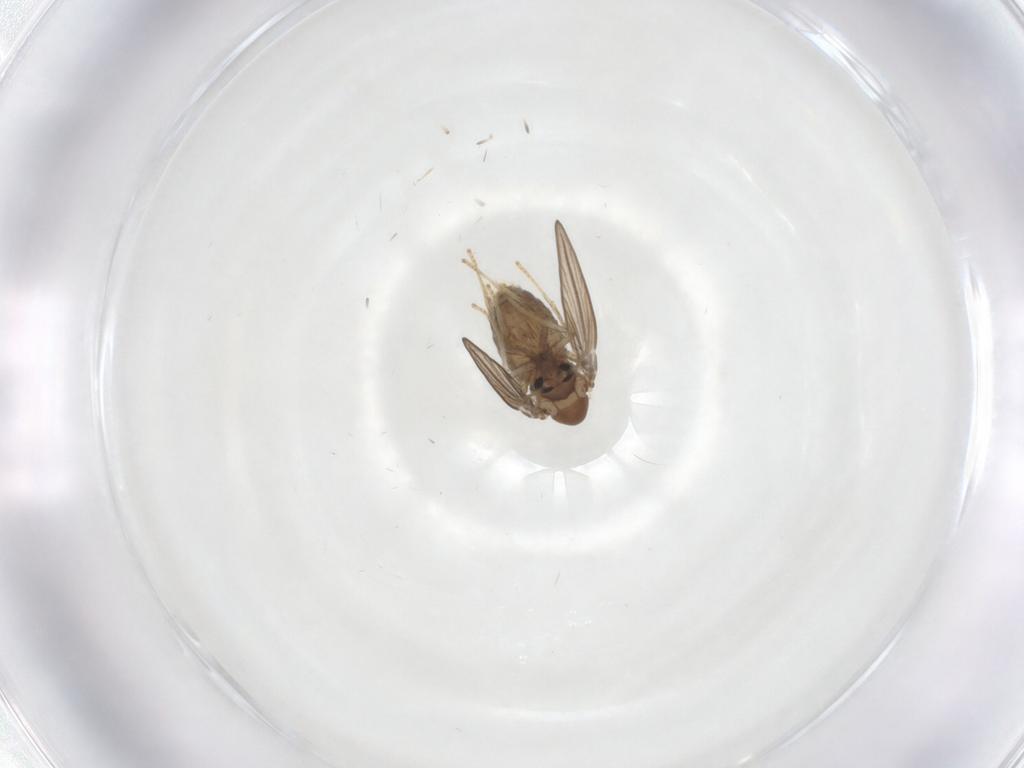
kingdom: Animalia
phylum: Arthropoda
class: Insecta
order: Diptera
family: Psychodidae
